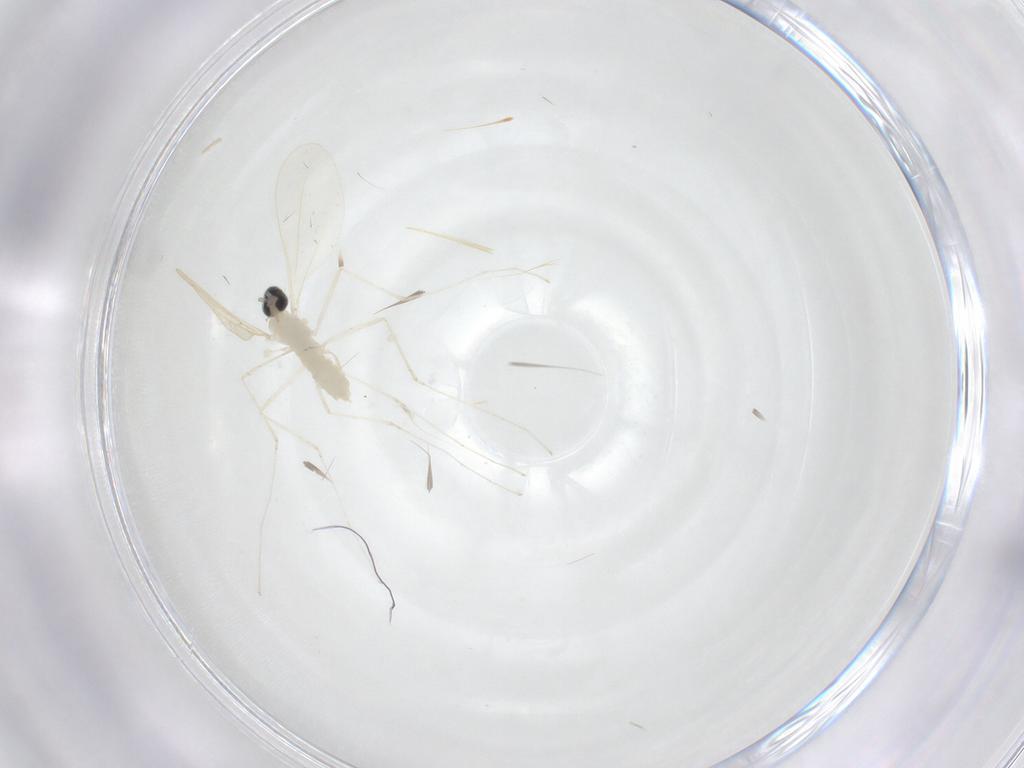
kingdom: Animalia
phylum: Arthropoda
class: Insecta
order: Diptera
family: Cecidomyiidae
